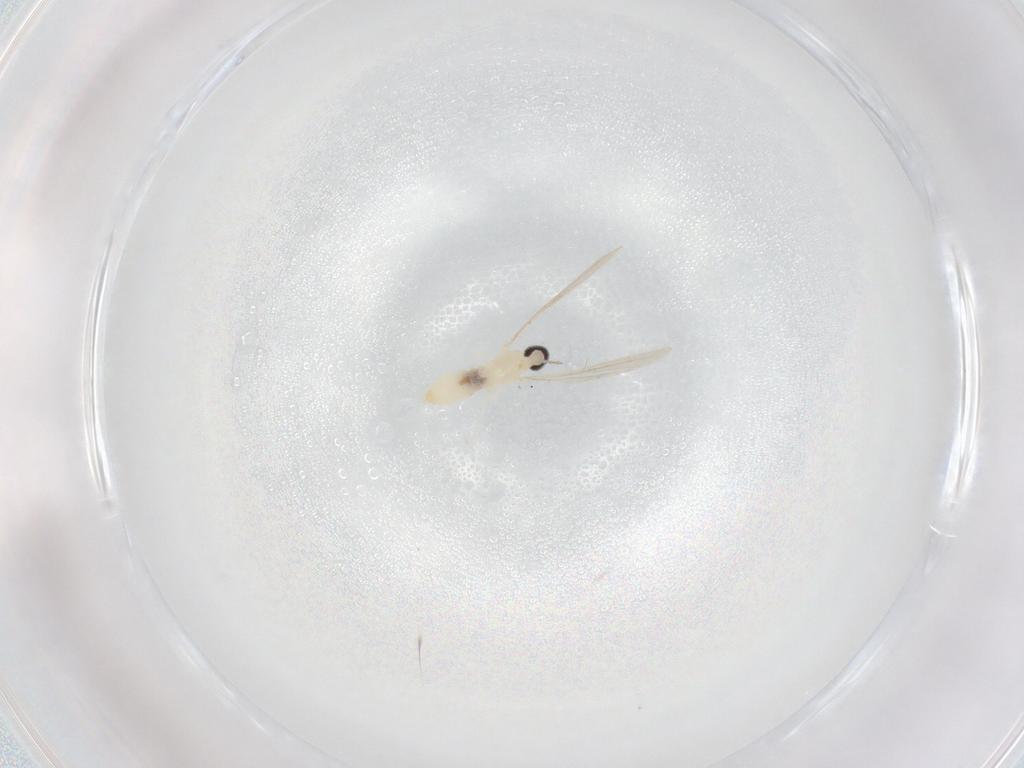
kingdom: Animalia
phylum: Arthropoda
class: Insecta
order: Diptera
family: Cecidomyiidae
